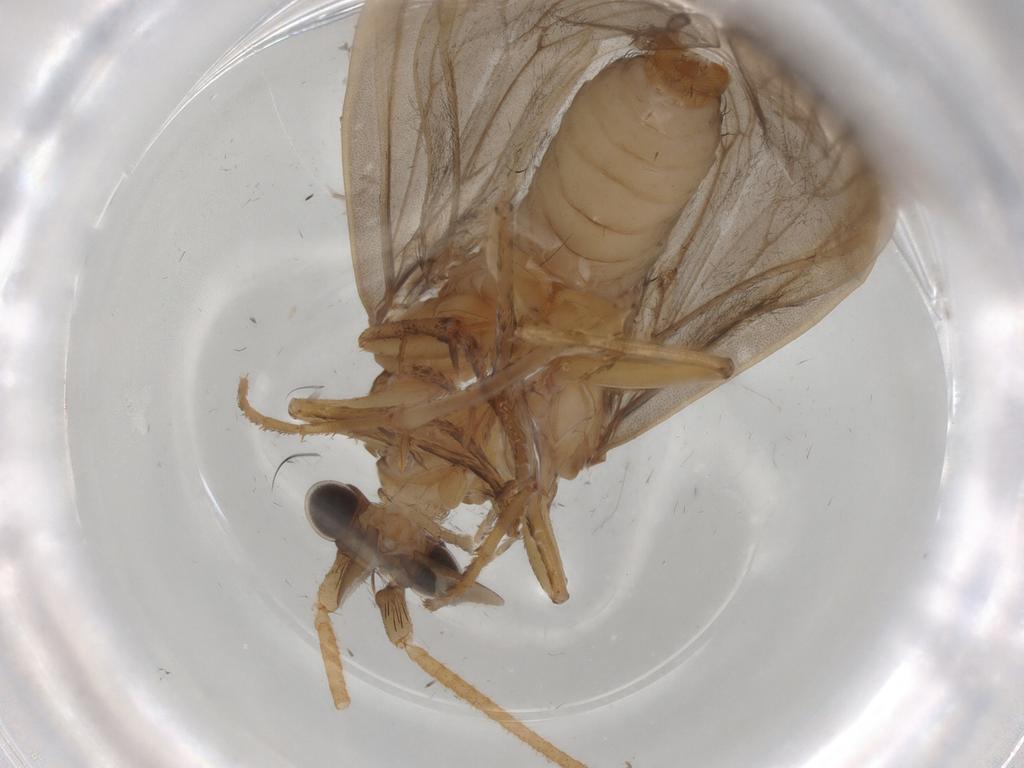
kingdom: Animalia
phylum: Arthropoda
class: Insecta
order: Trichoptera
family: Lepidostomatidae
